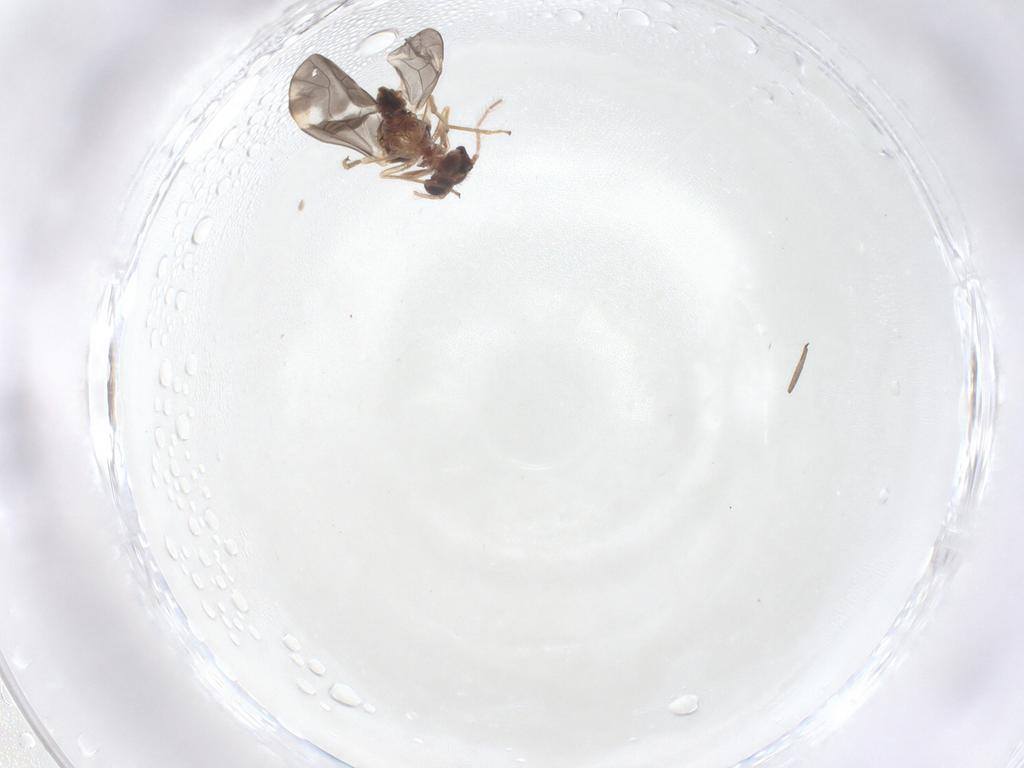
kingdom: Animalia
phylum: Arthropoda
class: Insecta
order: Psocodea
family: Peripsocidae
